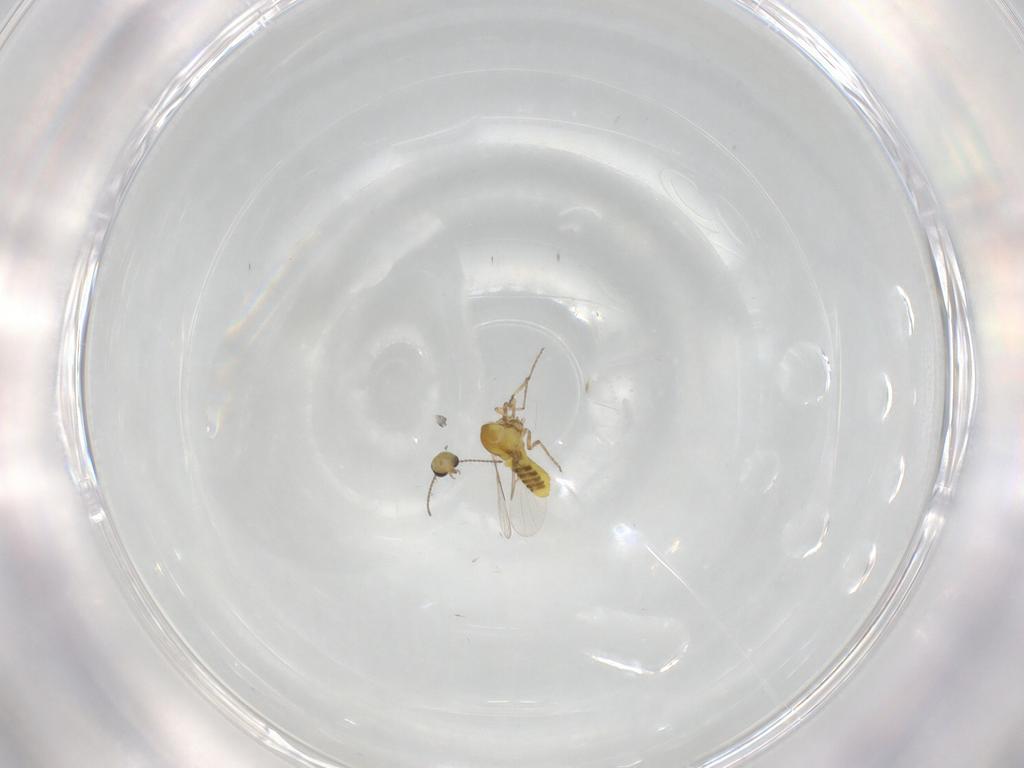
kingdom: Animalia
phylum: Arthropoda
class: Insecta
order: Diptera
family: Ceratopogonidae
